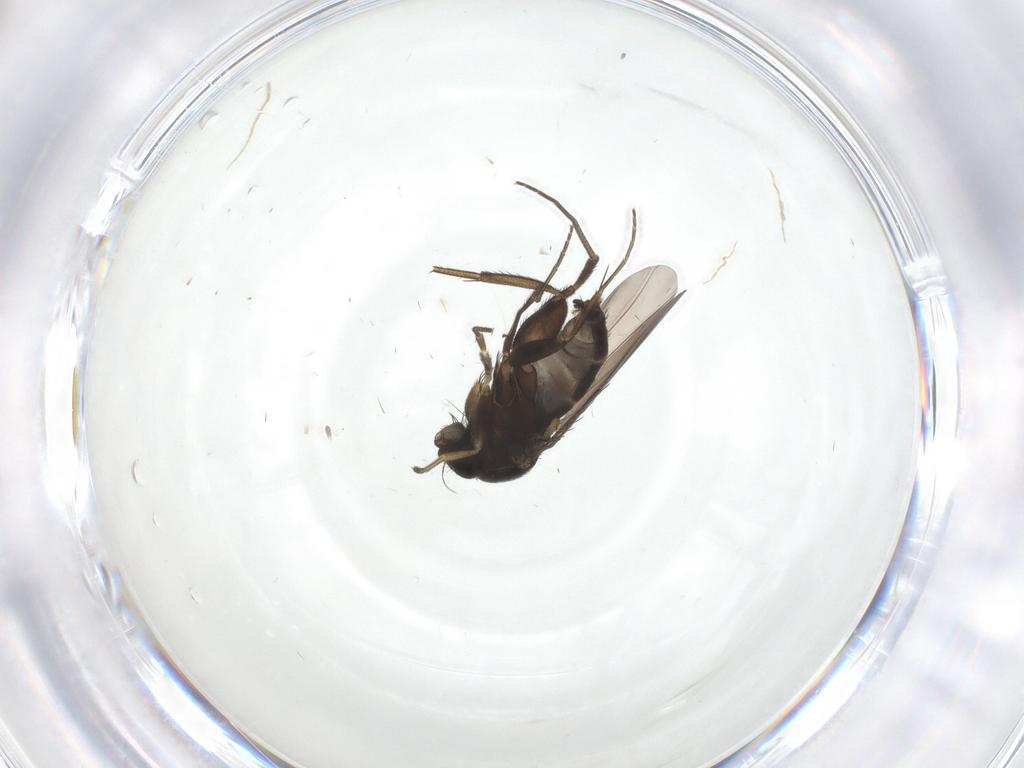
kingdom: Animalia
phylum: Arthropoda
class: Insecta
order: Diptera
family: Phoridae
